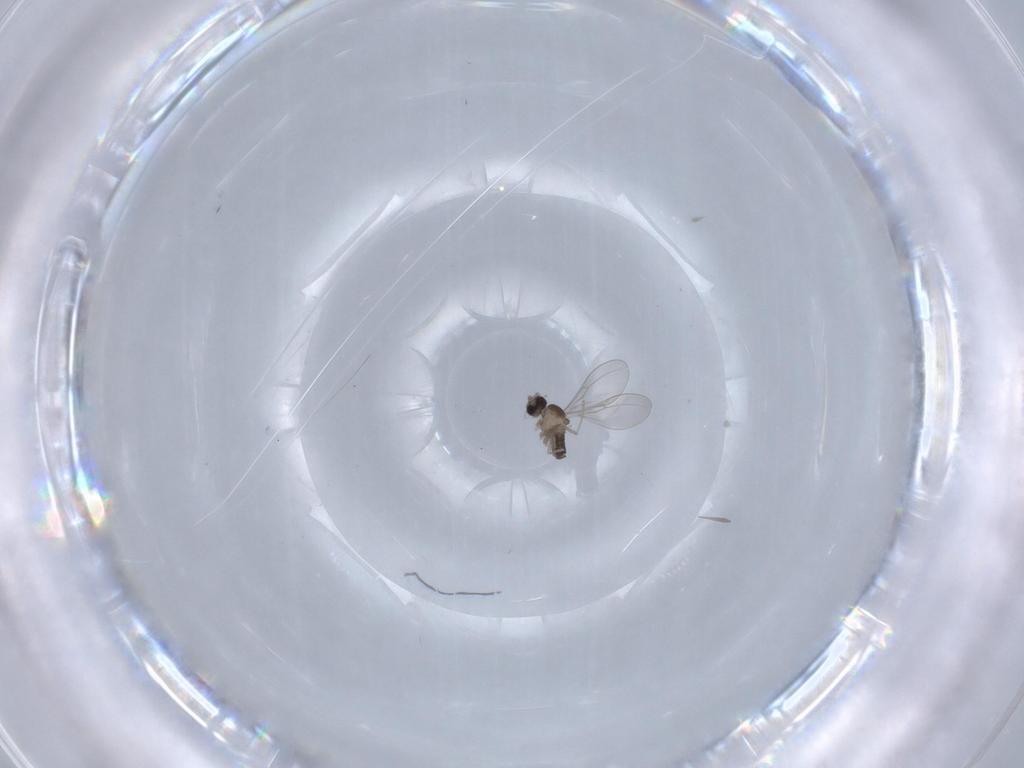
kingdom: Animalia
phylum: Arthropoda
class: Insecta
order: Diptera
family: Cecidomyiidae
